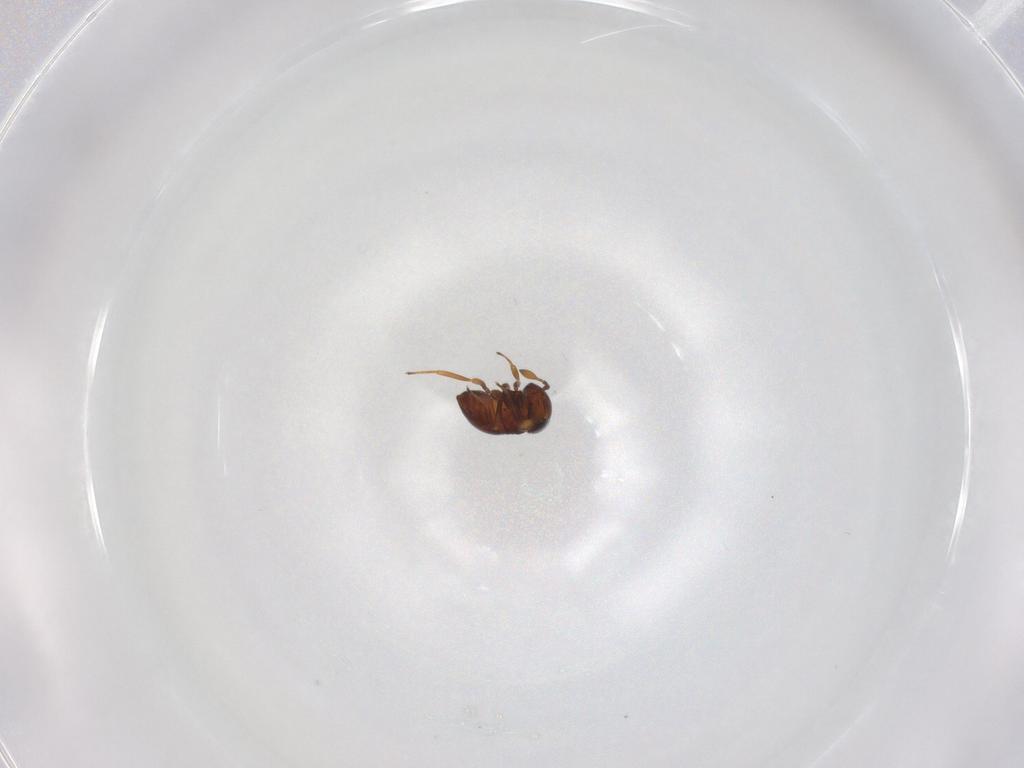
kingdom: Animalia
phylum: Arthropoda
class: Insecta
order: Hymenoptera
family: Scelionidae
